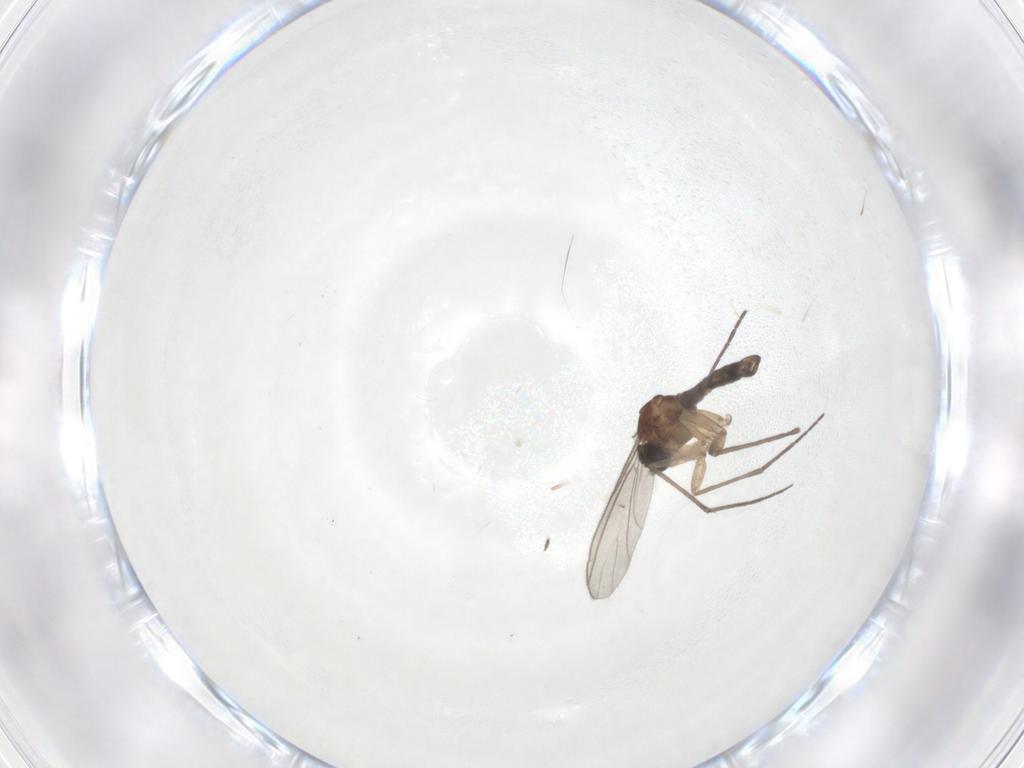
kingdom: Animalia
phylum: Arthropoda
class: Insecta
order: Diptera
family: Sciaridae
